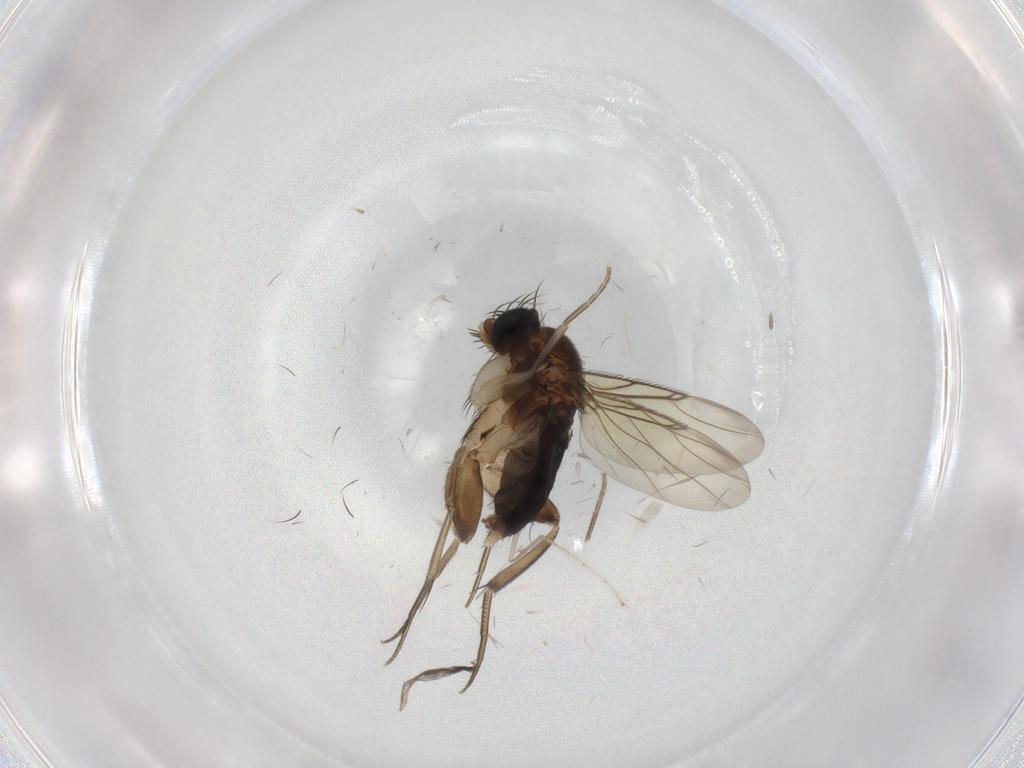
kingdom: Animalia
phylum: Arthropoda
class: Insecta
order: Diptera
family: Phoridae
